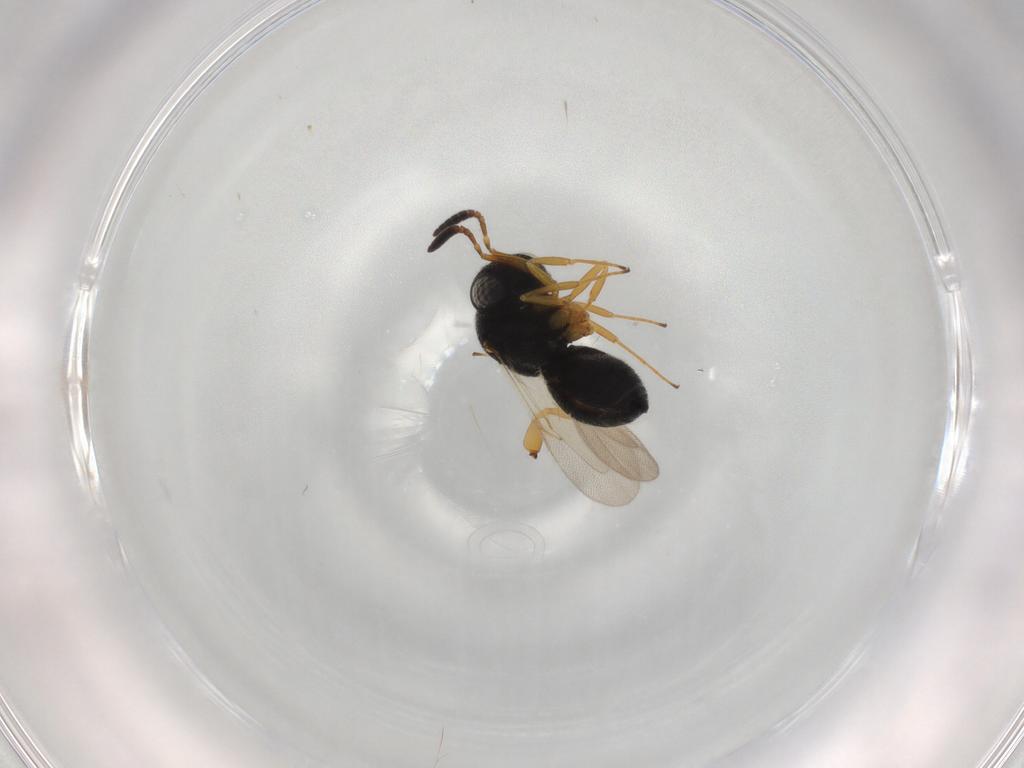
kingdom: Animalia
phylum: Arthropoda
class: Insecta
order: Hymenoptera
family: Scelionidae
